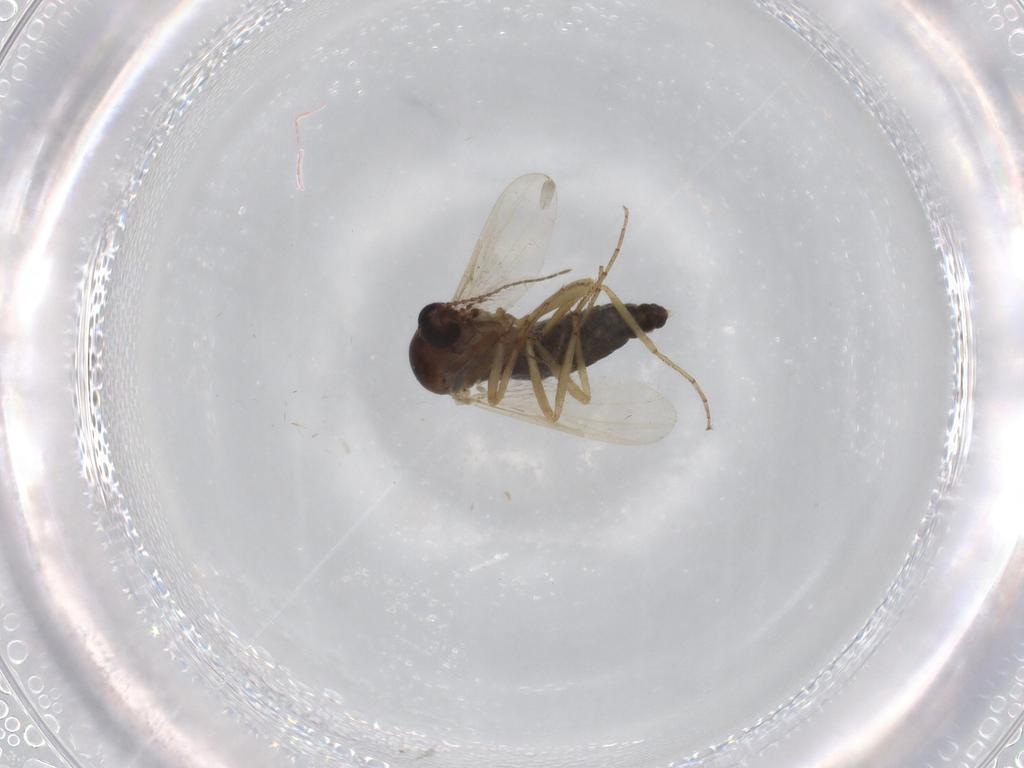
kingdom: Animalia
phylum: Arthropoda
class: Insecta
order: Diptera
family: Ceratopogonidae
